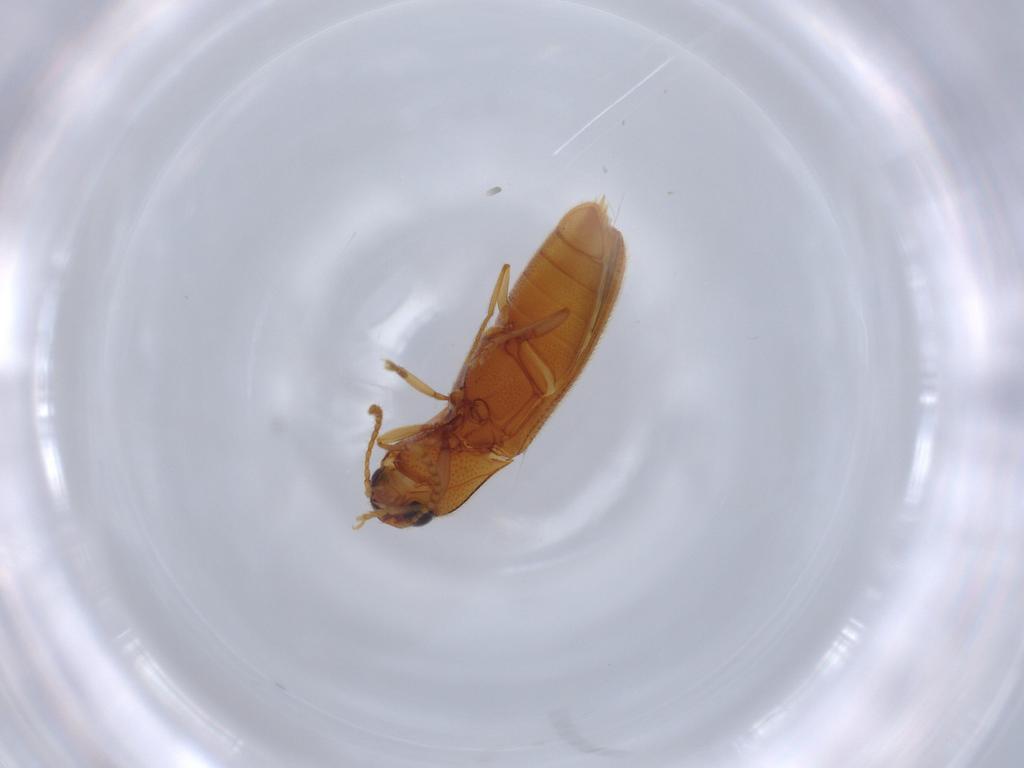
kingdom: Animalia
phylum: Arthropoda
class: Insecta
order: Coleoptera
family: Elateridae
